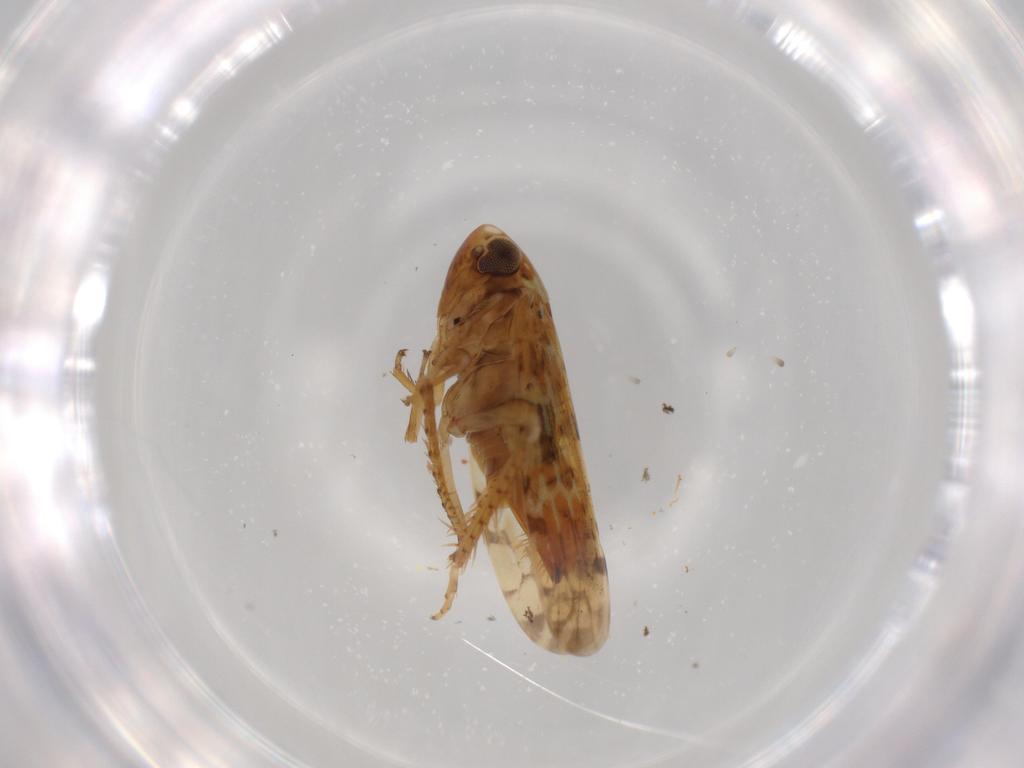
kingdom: Animalia
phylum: Arthropoda
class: Insecta
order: Hemiptera
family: Cicadellidae
